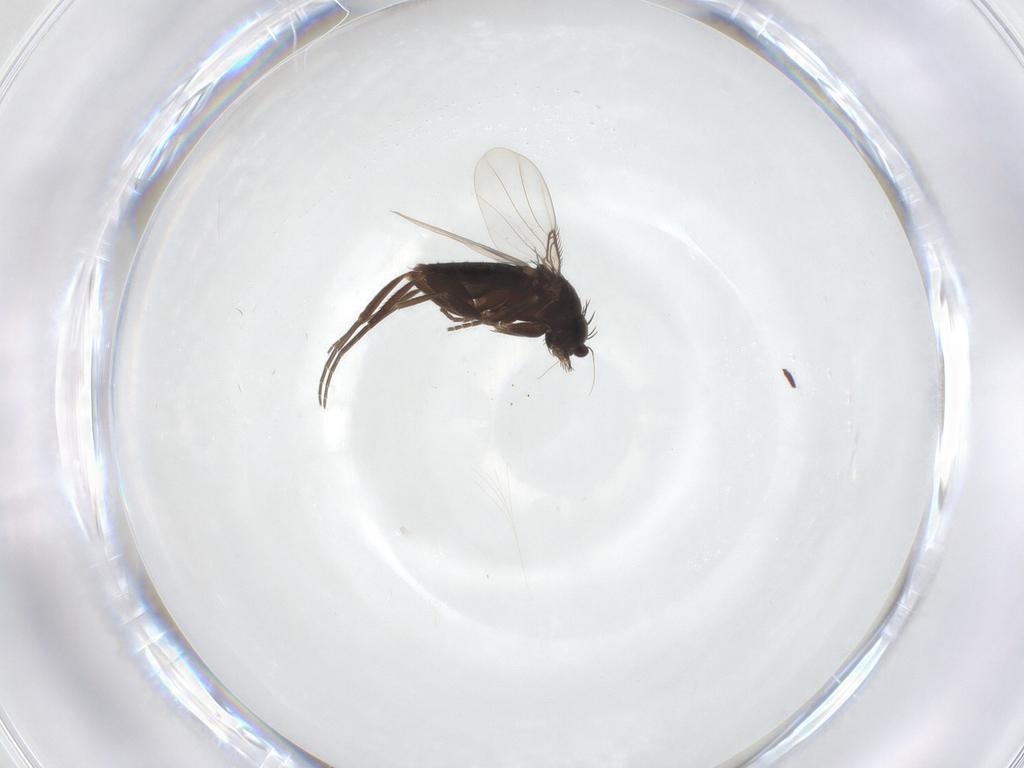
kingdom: Animalia
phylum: Arthropoda
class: Insecta
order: Diptera
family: Phoridae
